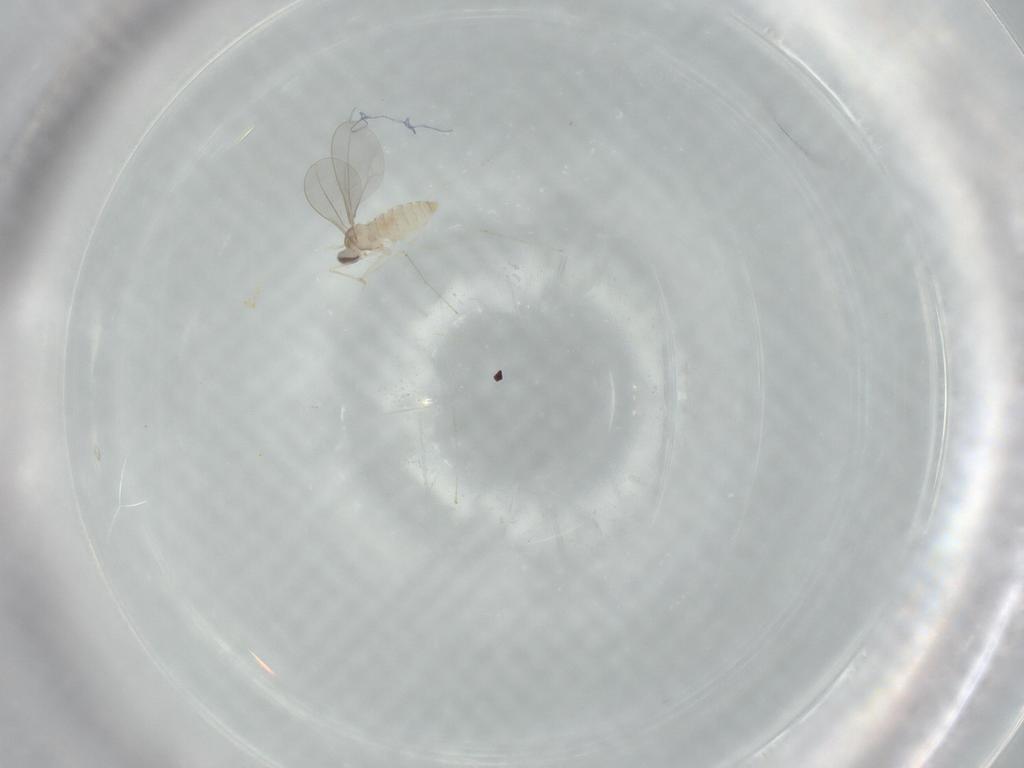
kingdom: Animalia
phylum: Arthropoda
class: Insecta
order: Diptera
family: Cecidomyiidae
